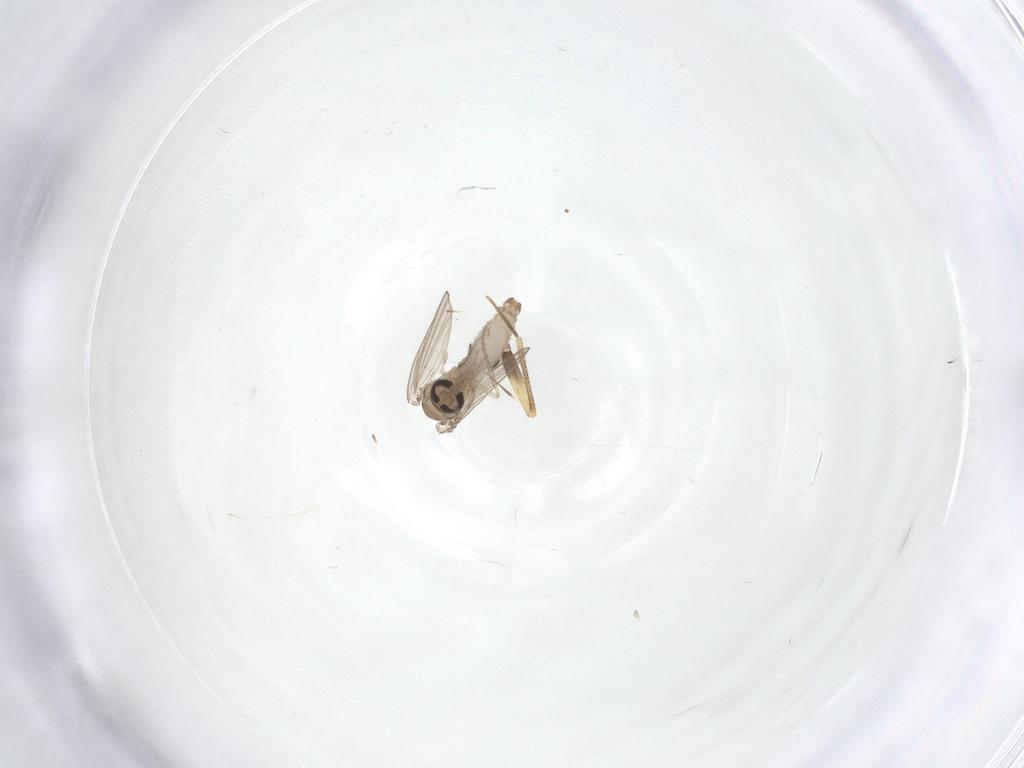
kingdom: Animalia
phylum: Arthropoda
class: Insecta
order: Diptera
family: Psychodidae
